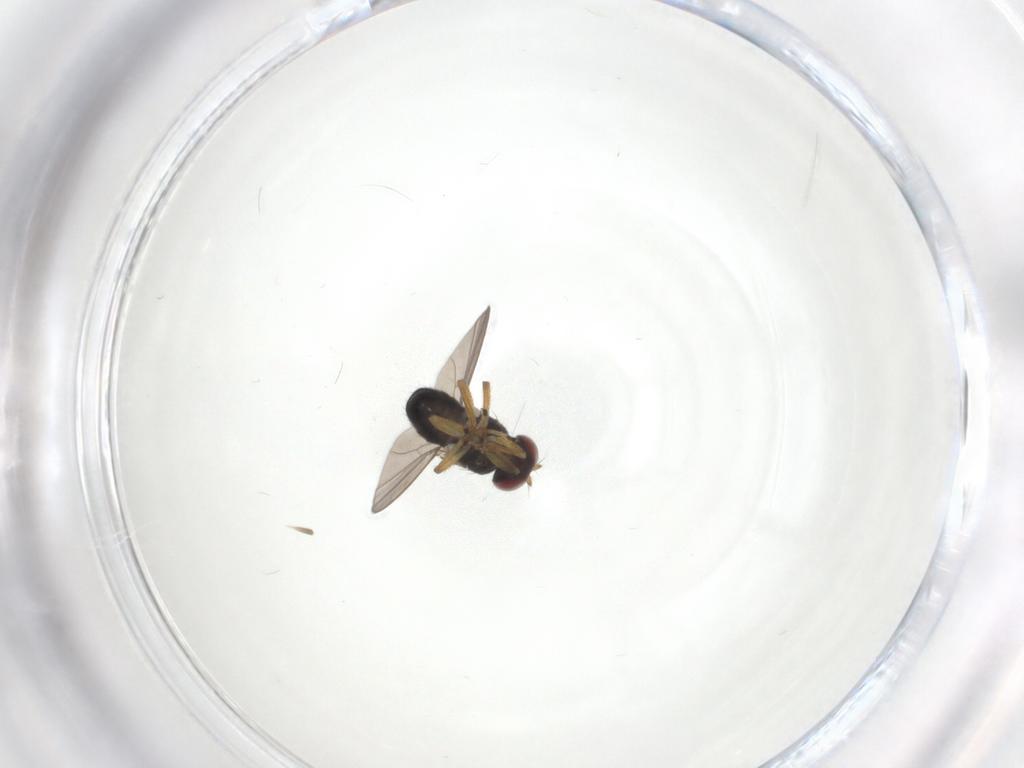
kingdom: Animalia
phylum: Arthropoda
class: Insecta
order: Diptera
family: Ephydridae
